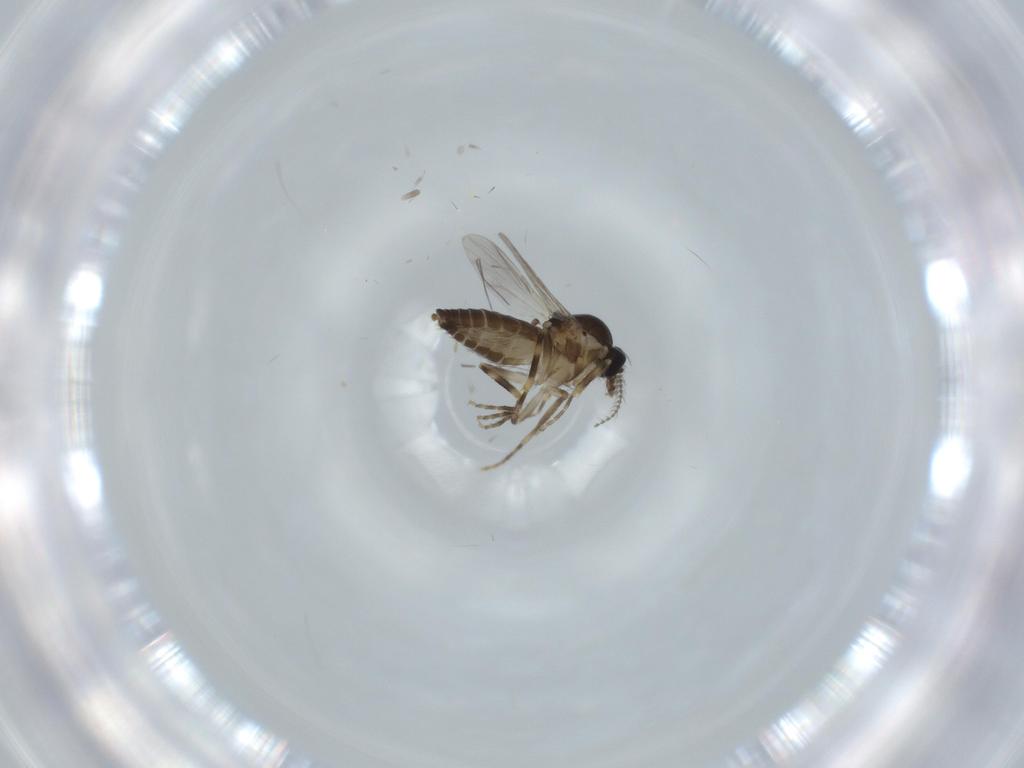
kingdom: Animalia
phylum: Arthropoda
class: Insecta
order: Diptera
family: Ceratopogonidae
